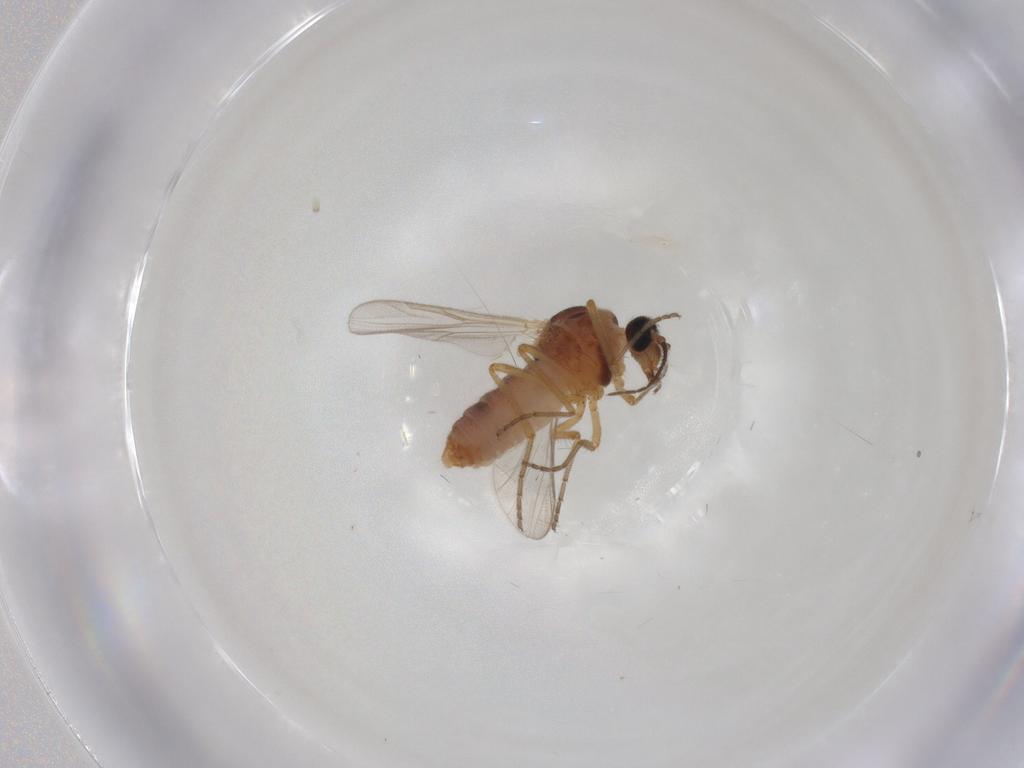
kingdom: Animalia
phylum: Arthropoda
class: Insecta
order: Diptera
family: Ceratopogonidae
